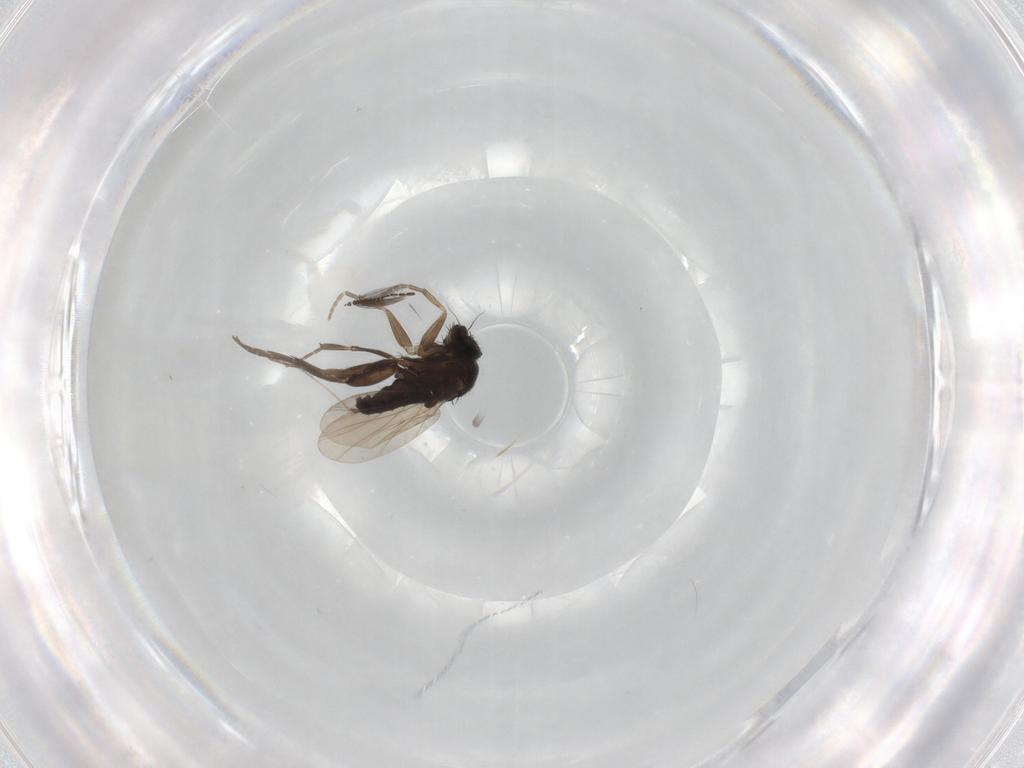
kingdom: Animalia
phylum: Arthropoda
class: Insecta
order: Diptera
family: Phoridae
